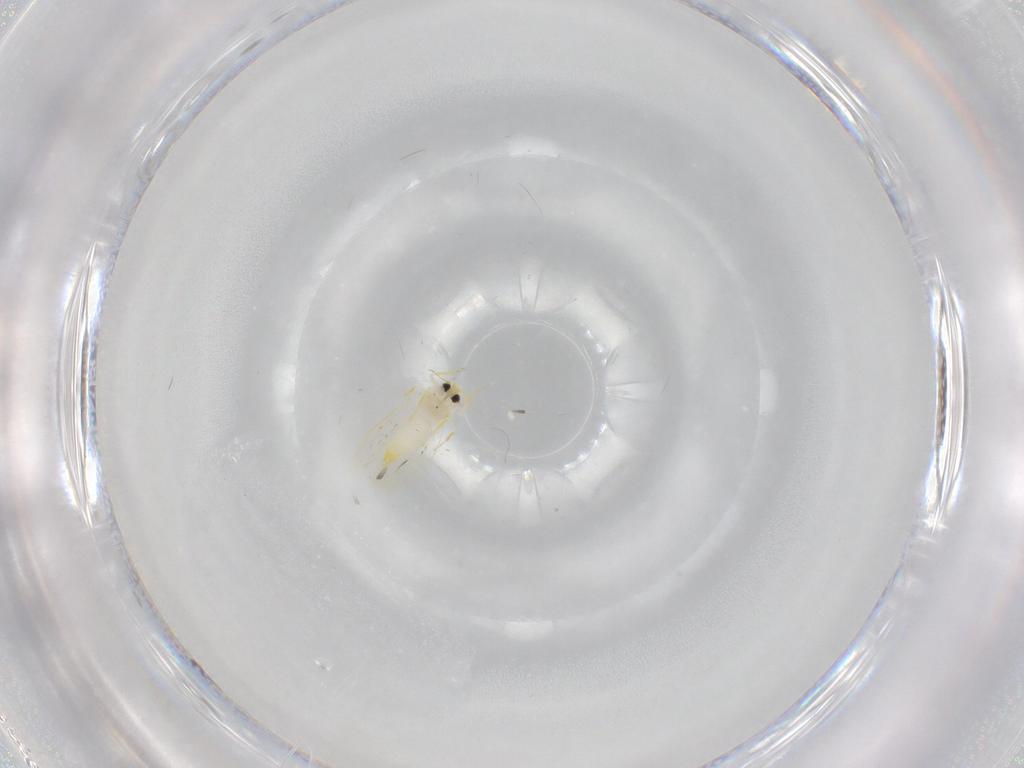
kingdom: Animalia
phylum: Arthropoda
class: Insecta
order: Hemiptera
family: Aleyrodidae
